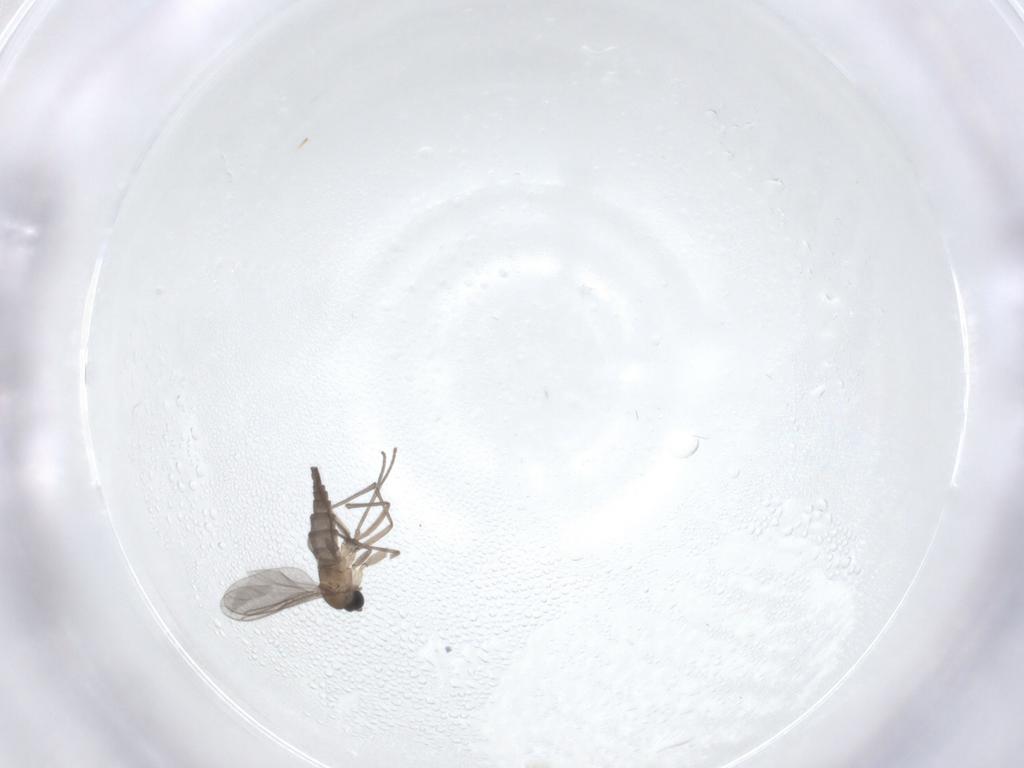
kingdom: Animalia
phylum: Arthropoda
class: Insecta
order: Diptera
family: Sciaridae
